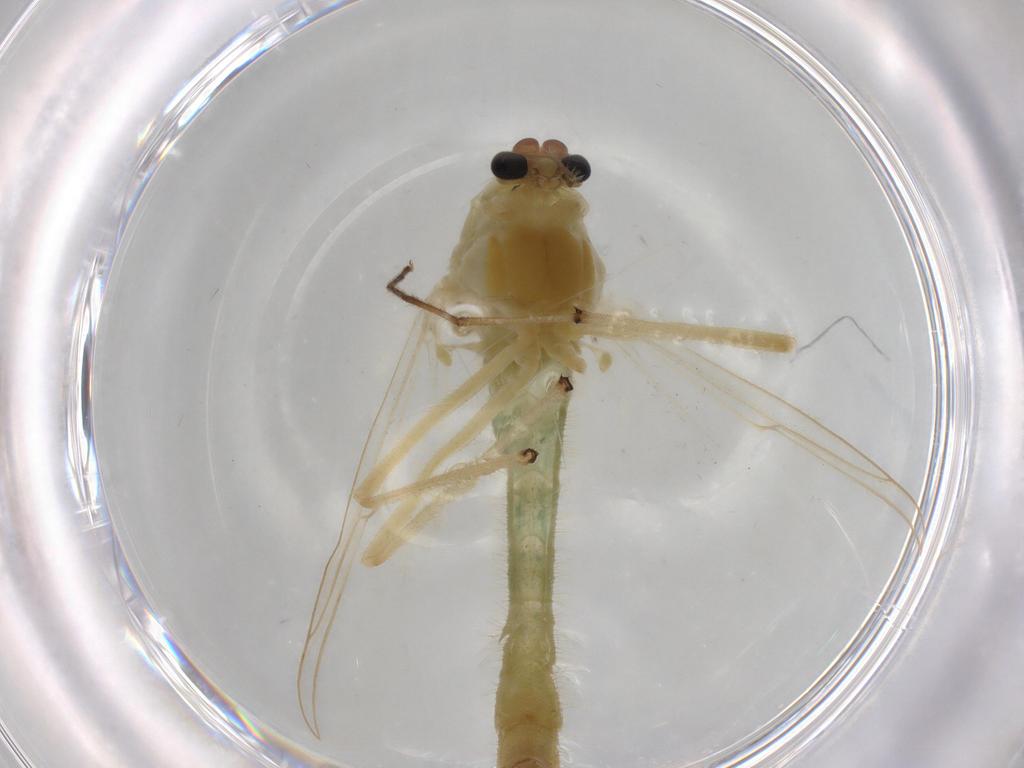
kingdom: Animalia
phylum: Arthropoda
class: Insecta
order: Diptera
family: Chironomidae
